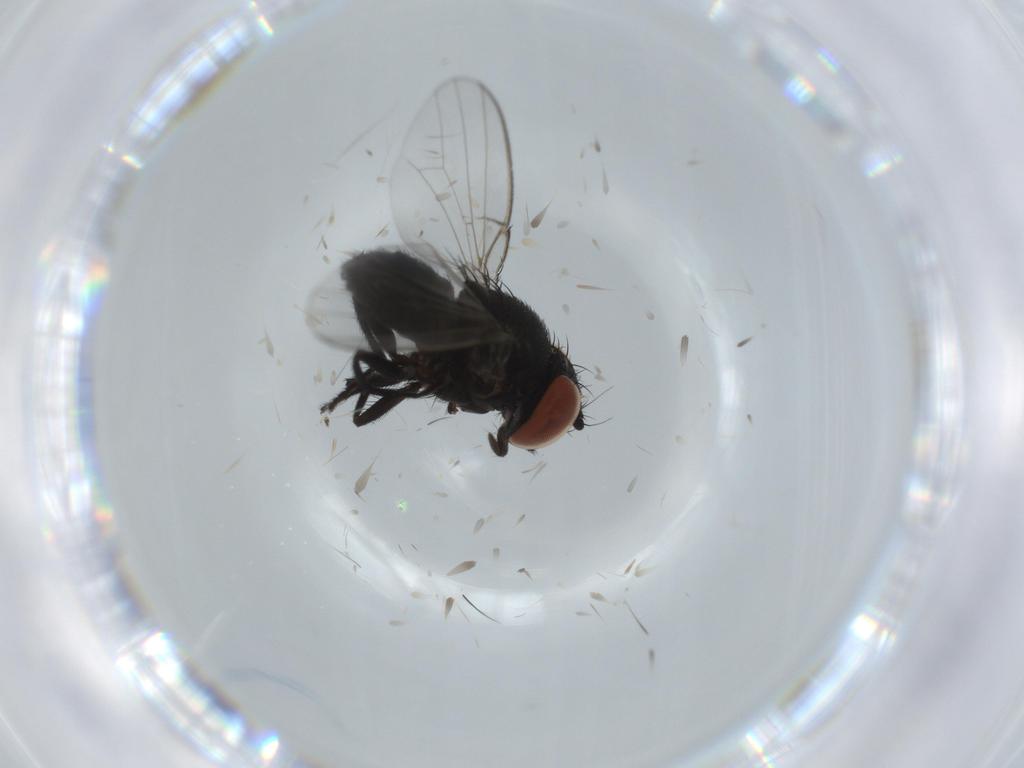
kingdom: Animalia
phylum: Arthropoda
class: Insecta
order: Diptera
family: Milichiidae
